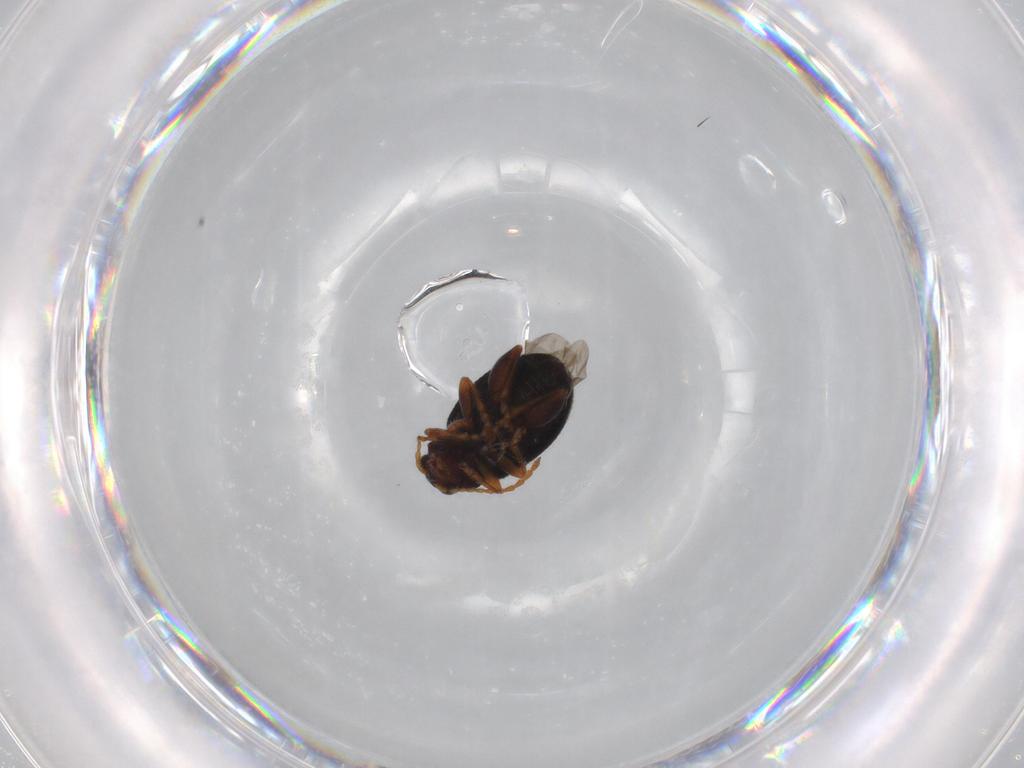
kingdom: Animalia
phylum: Arthropoda
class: Insecta
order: Coleoptera
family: Chrysomelidae
